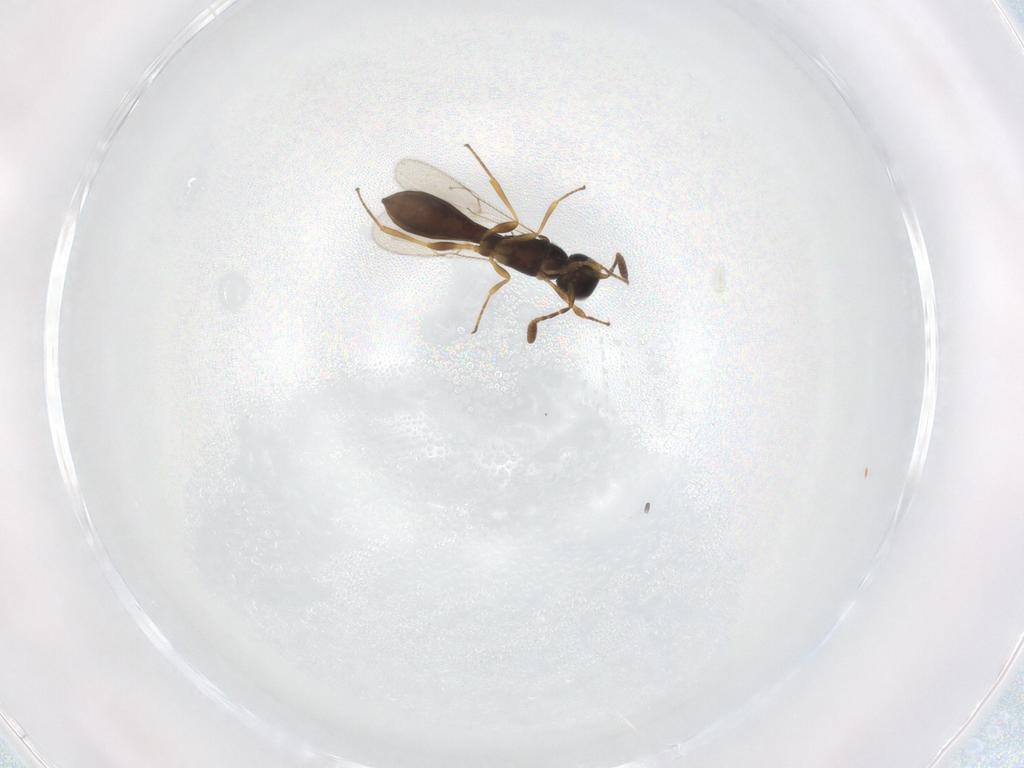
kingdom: Animalia
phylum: Arthropoda
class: Insecta
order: Hymenoptera
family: Scelionidae
